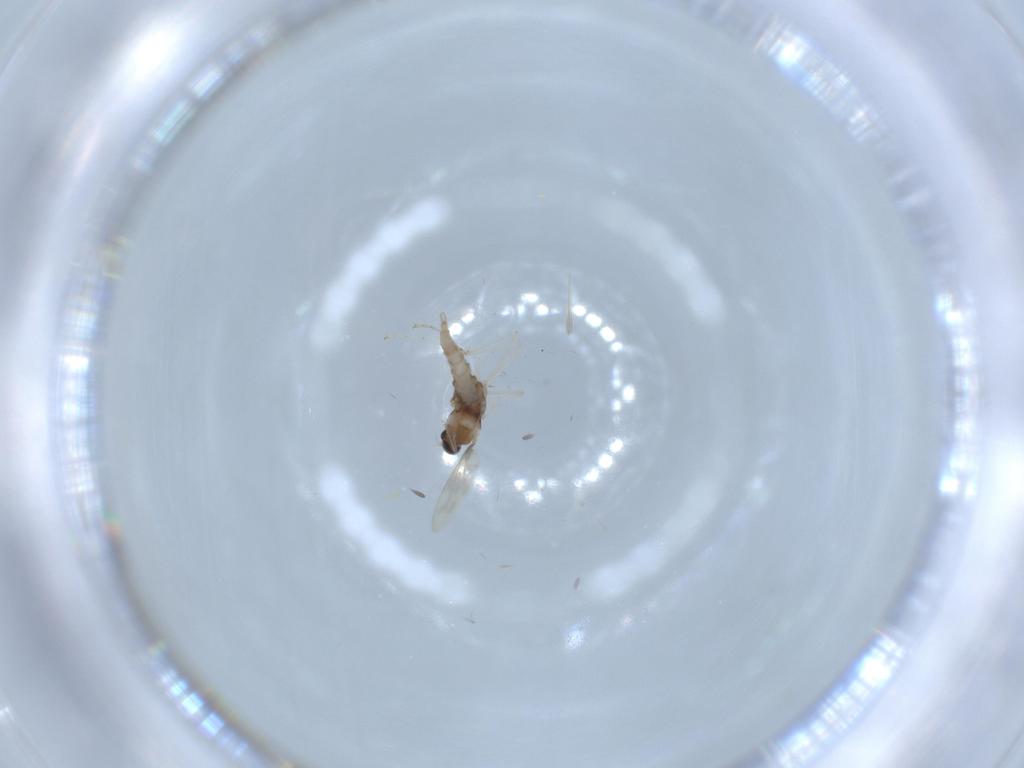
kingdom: Animalia
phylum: Arthropoda
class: Insecta
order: Diptera
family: Cecidomyiidae
